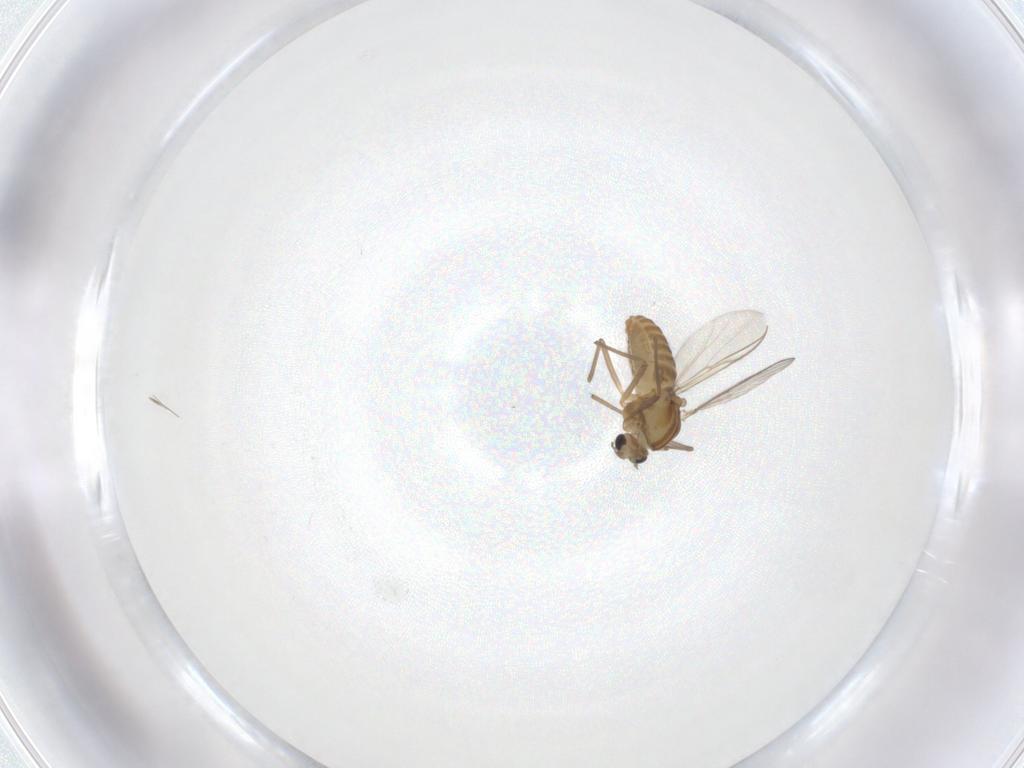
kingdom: Animalia
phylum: Arthropoda
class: Insecta
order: Diptera
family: Chironomidae
